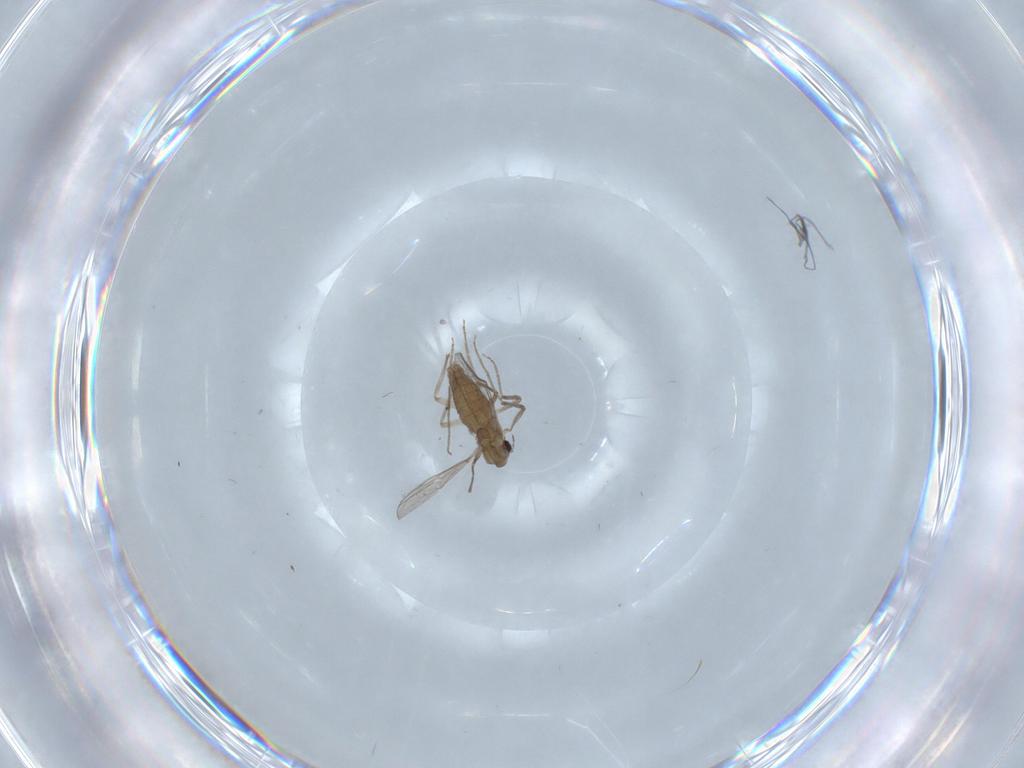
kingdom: Animalia
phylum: Arthropoda
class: Insecta
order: Diptera
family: Chironomidae
